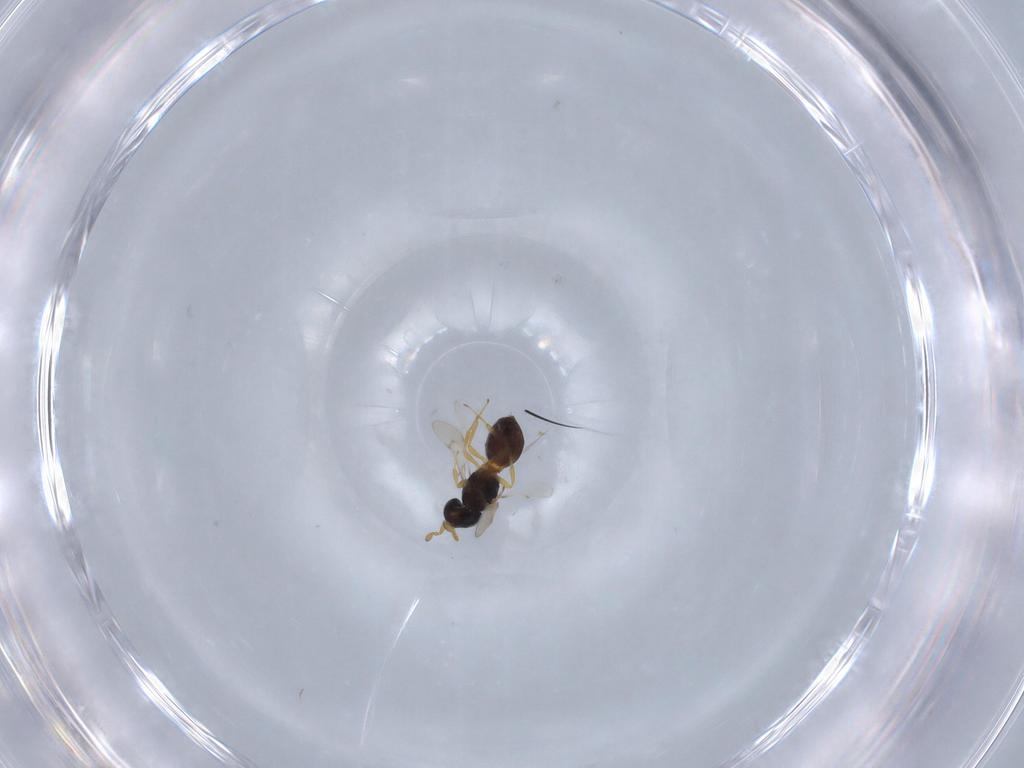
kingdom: Animalia
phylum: Arthropoda
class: Insecta
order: Hymenoptera
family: Scelionidae
